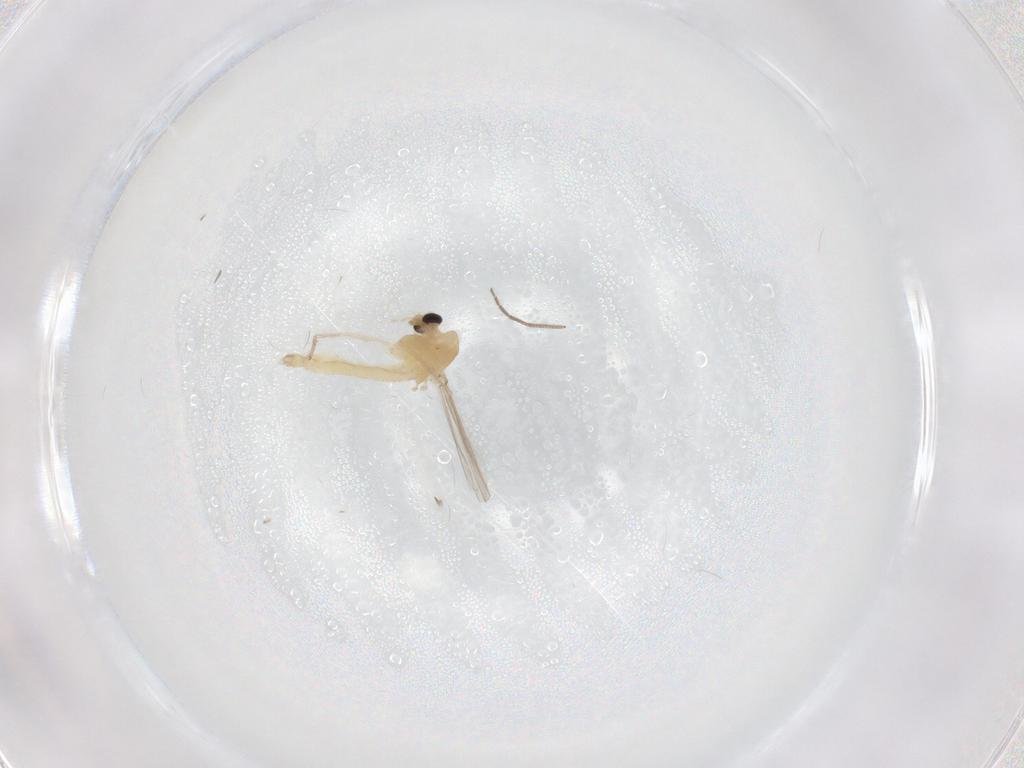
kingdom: Animalia
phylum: Arthropoda
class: Insecta
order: Diptera
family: Chironomidae
